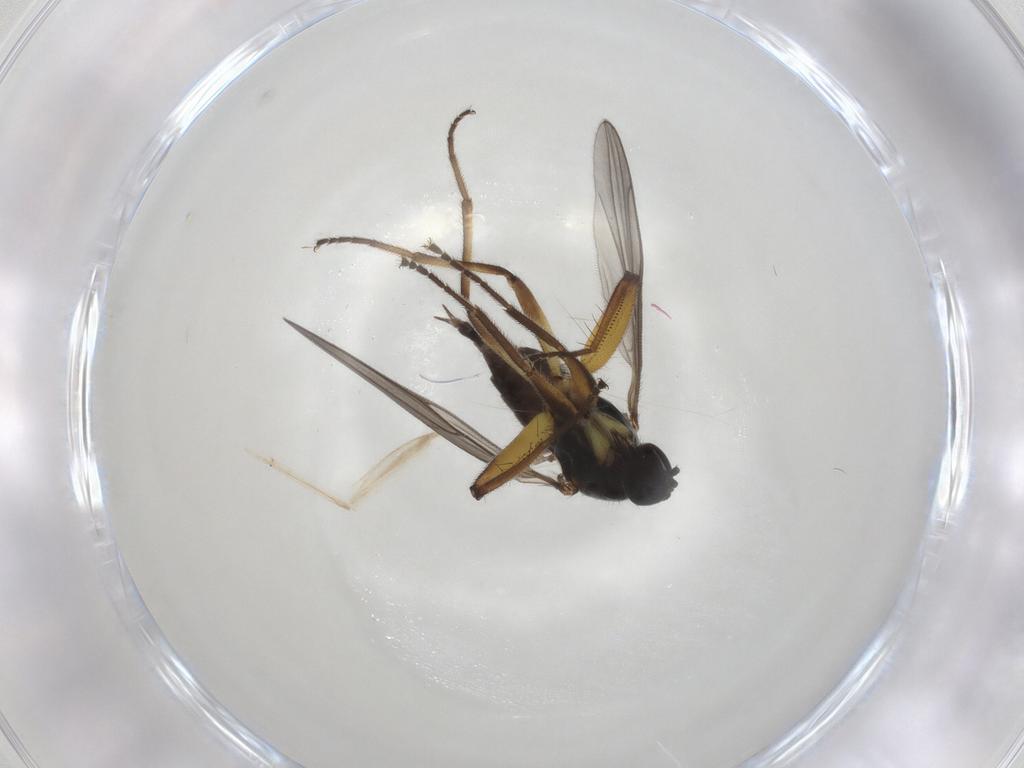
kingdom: Animalia
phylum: Arthropoda
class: Insecta
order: Diptera
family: Hybotidae
